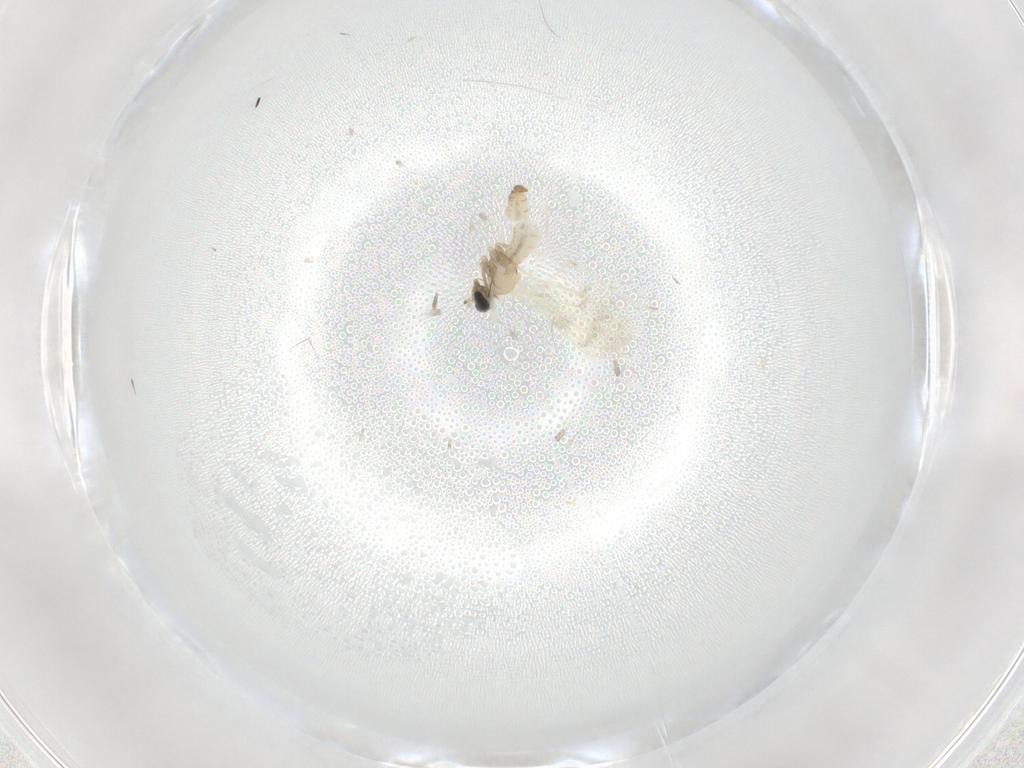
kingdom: Animalia
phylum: Arthropoda
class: Insecta
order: Diptera
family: Cecidomyiidae
